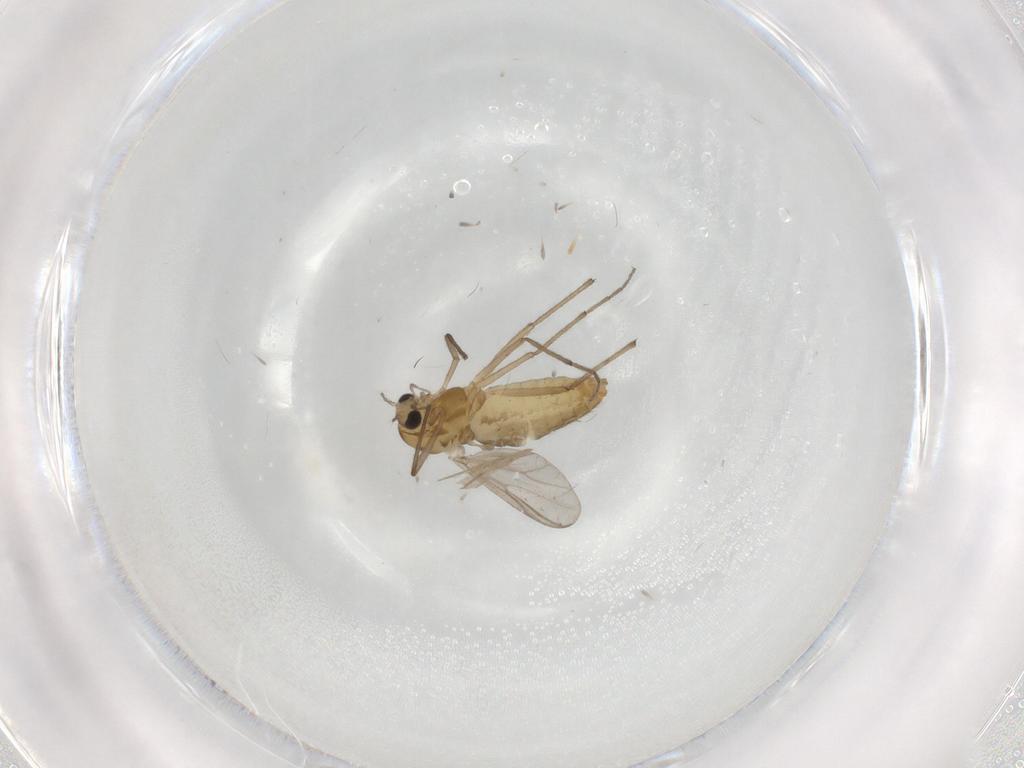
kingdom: Animalia
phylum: Arthropoda
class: Insecta
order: Diptera
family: Chironomidae
